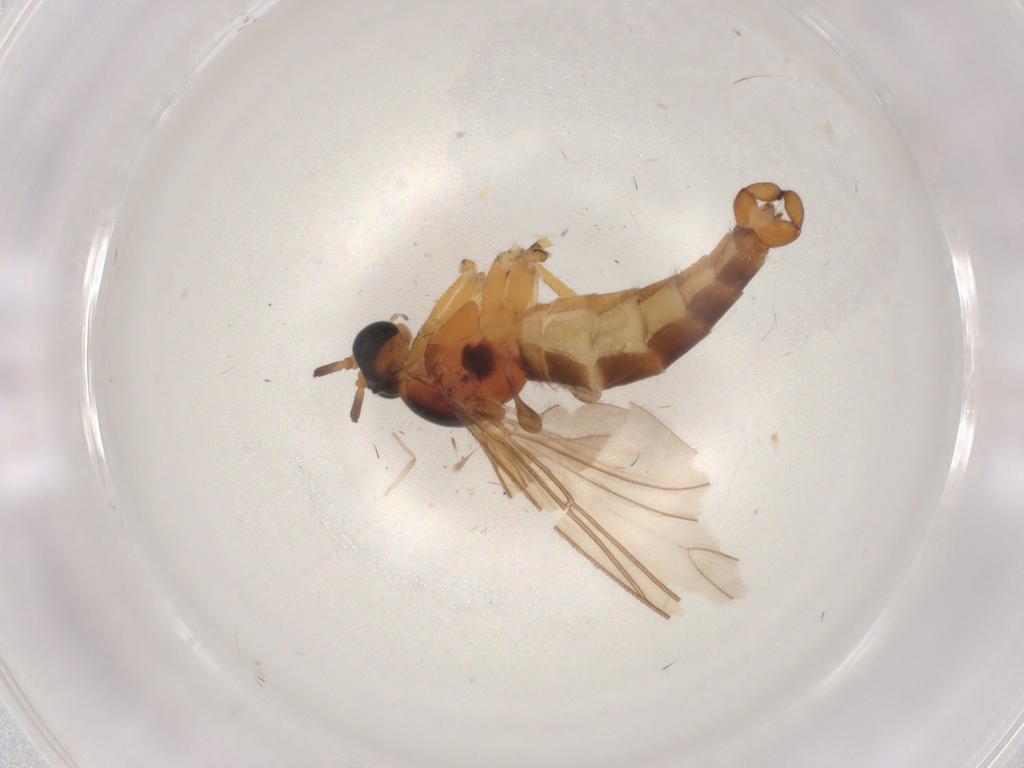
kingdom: Animalia
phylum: Arthropoda
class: Insecta
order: Diptera
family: Sciaridae
